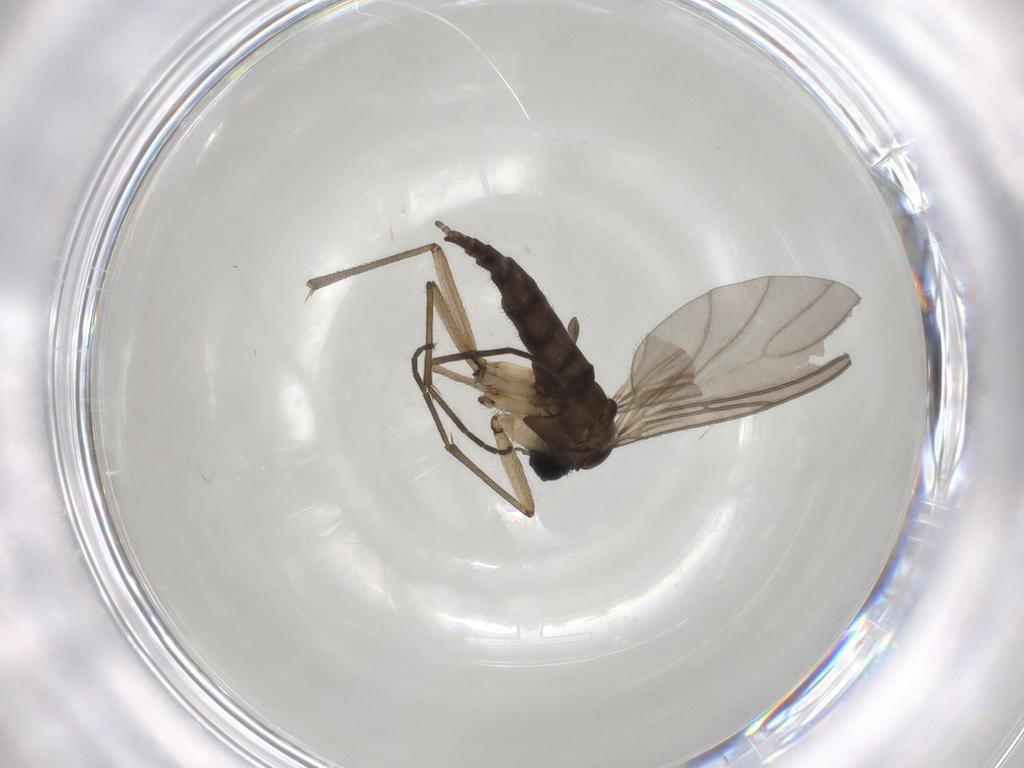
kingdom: Animalia
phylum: Arthropoda
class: Insecta
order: Diptera
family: Sciaridae
